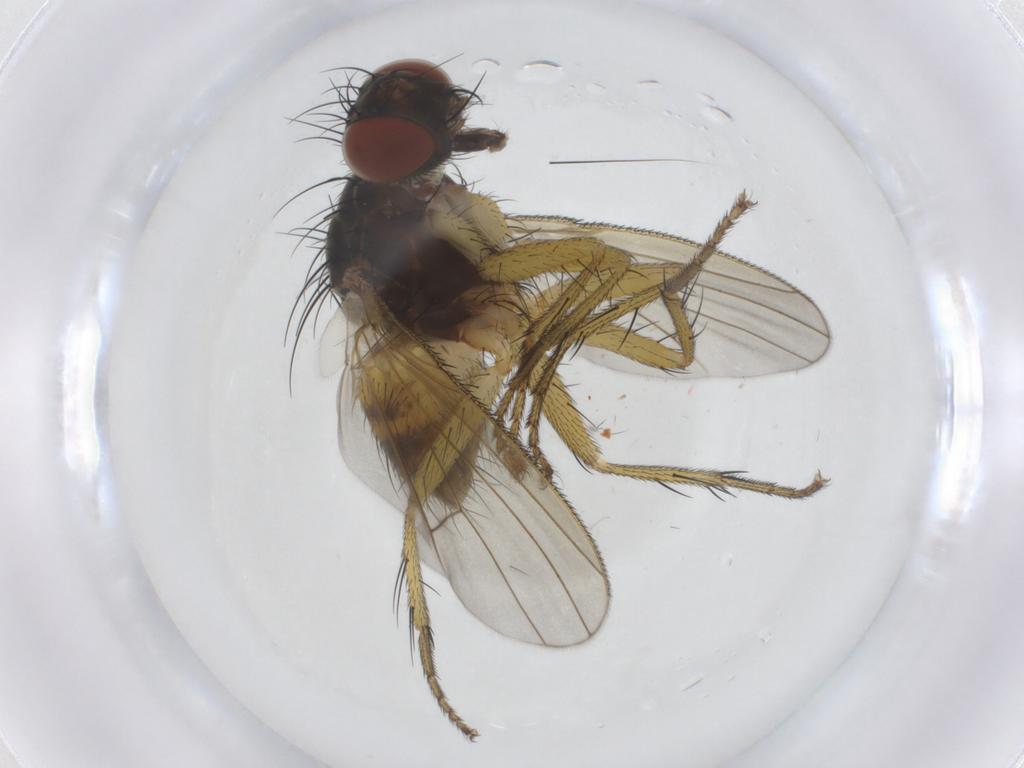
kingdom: Animalia
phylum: Arthropoda
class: Insecta
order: Diptera
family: Muscidae
